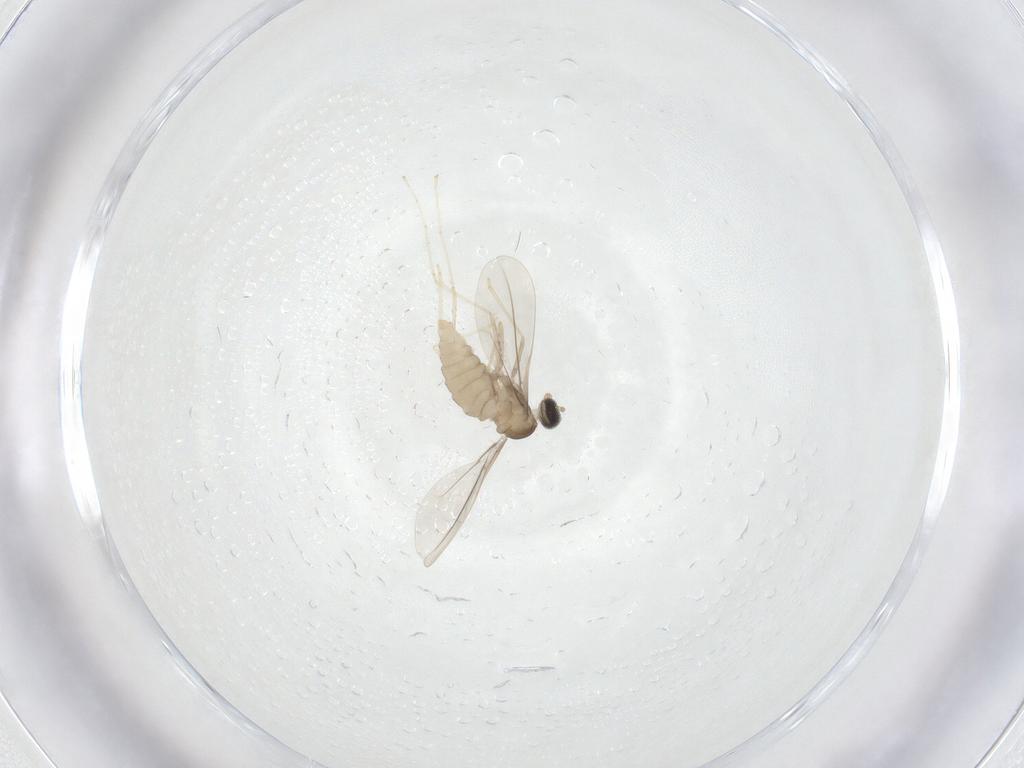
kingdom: Animalia
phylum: Arthropoda
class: Insecta
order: Diptera
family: Cecidomyiidae
